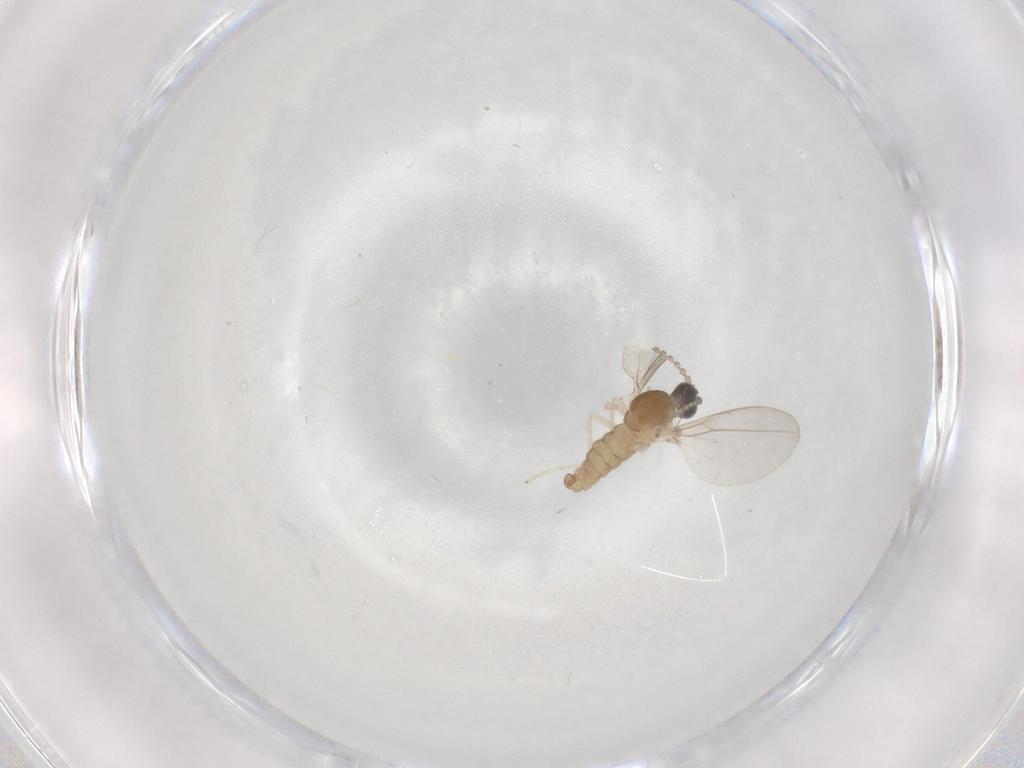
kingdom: Animalia
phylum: Arthropoda
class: Insecta
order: Diptera
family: Cecidomyiidae
